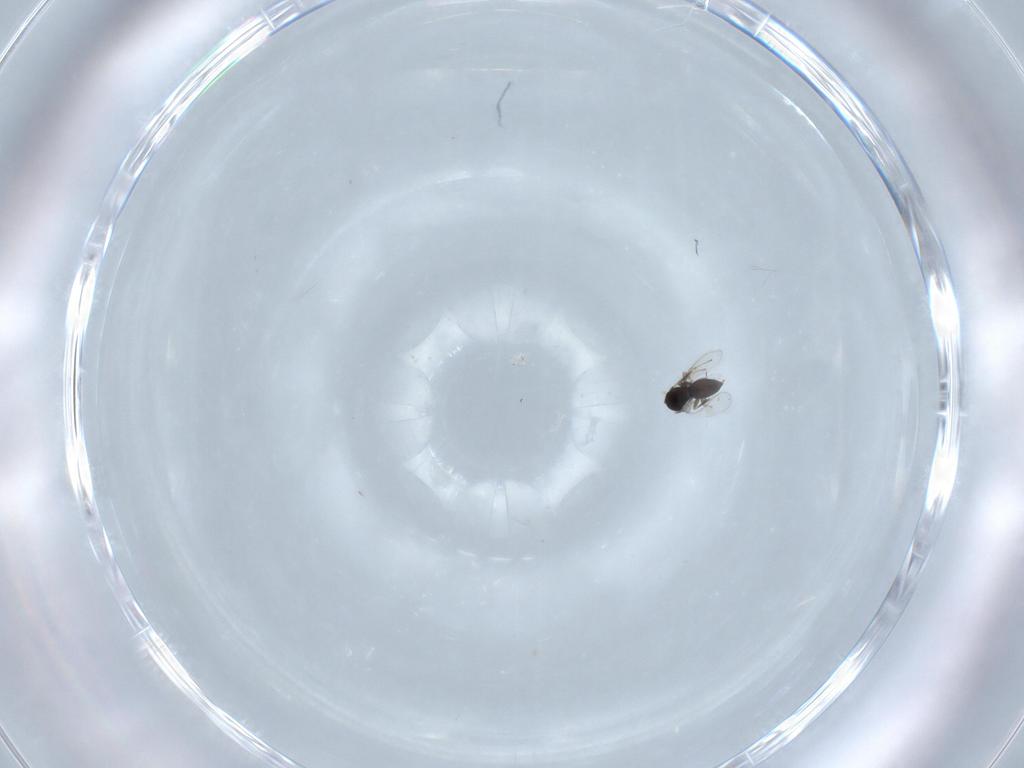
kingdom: Animalia
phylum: Arthropoda
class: Insecta
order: Hymenoptera
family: Scelionidae
